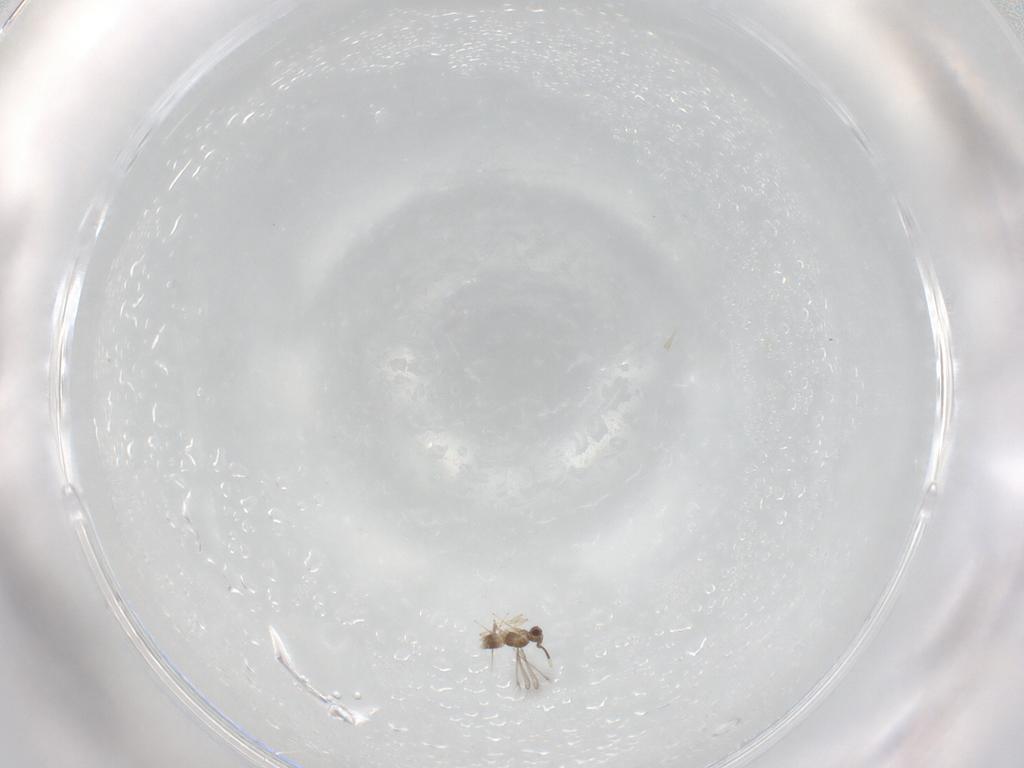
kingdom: Animalia
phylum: Arthropoda
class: Insecta
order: Hymenoptera
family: Mymaridae
